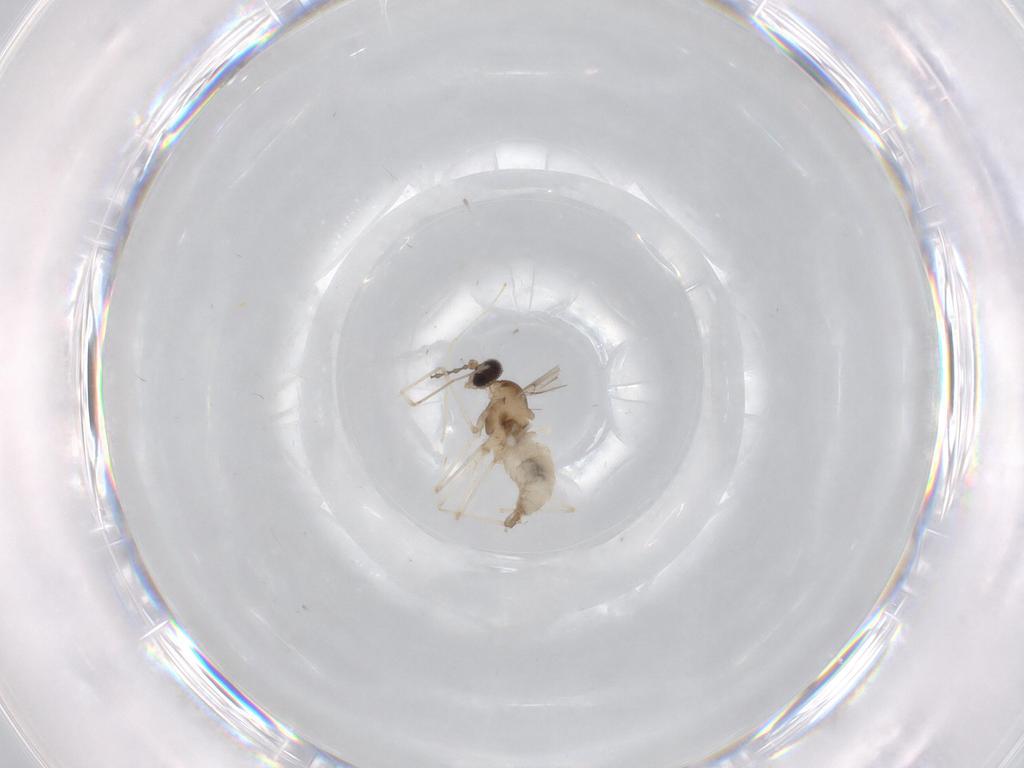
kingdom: Animalia
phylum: Arthropoda
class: Insecta
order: Diptera
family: Cecidomyiidae
